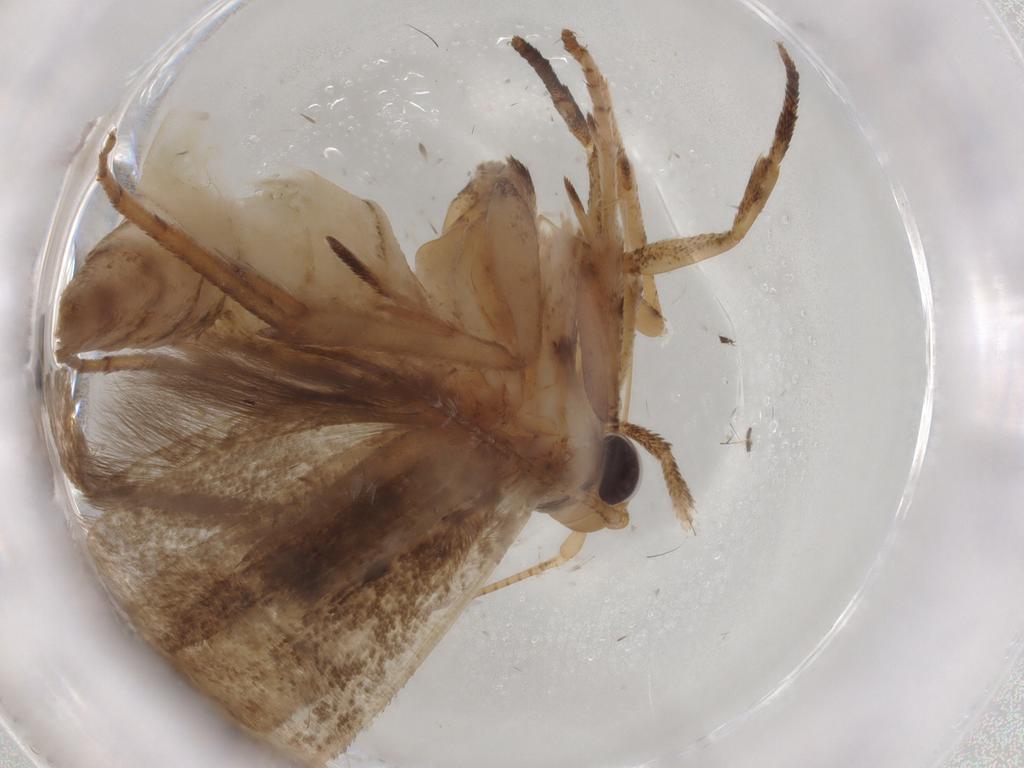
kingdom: Animalia
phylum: Arthropoda
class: Insecta
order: Lepidoptera
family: Yponomeutidae
